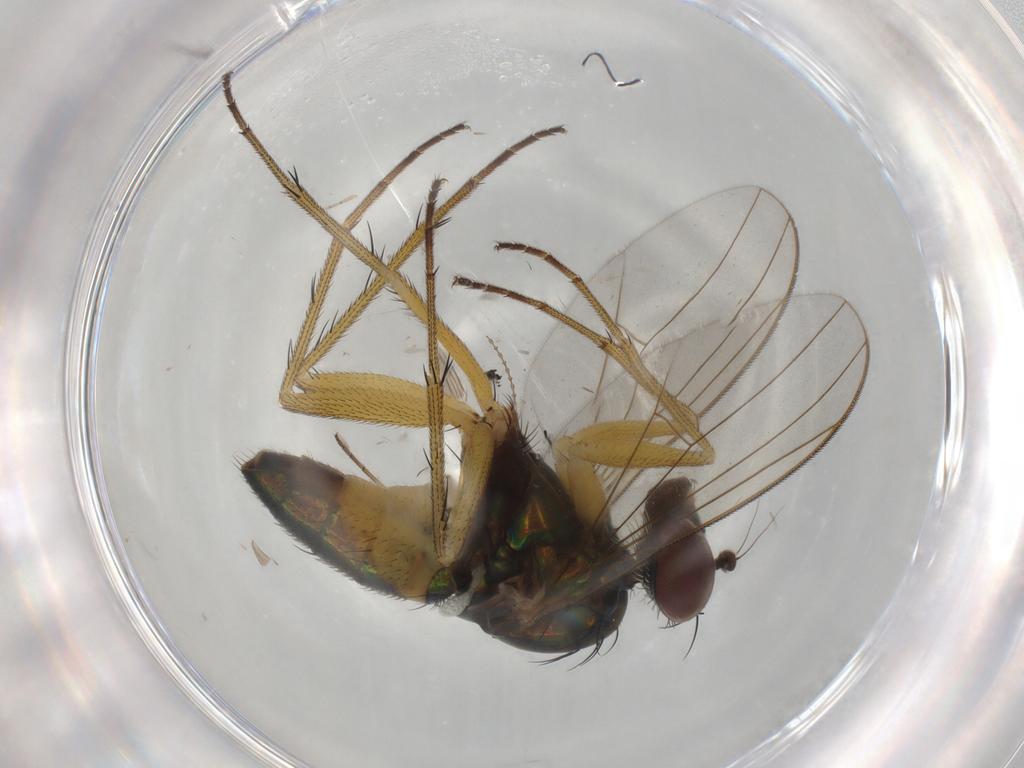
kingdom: Animalia
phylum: Arthropoda
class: Insecta
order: Diptera
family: Dolichopodidae
